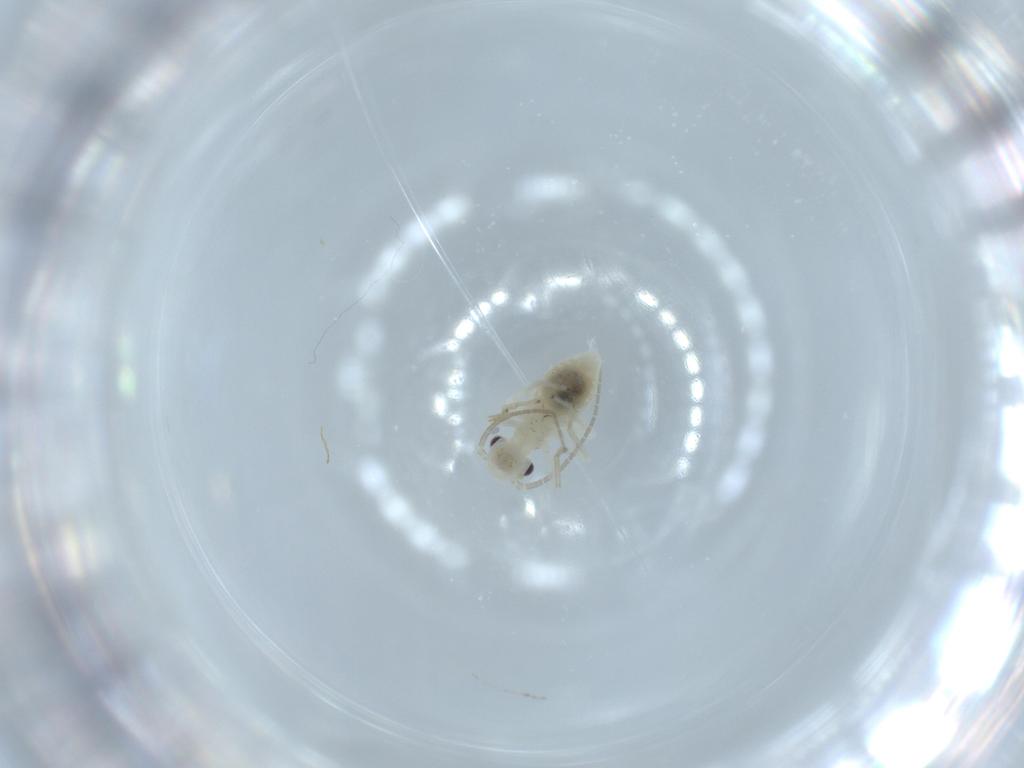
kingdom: Animalia
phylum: Arthropoda
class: Insecta
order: Psocodea
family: Caeciliusidae
